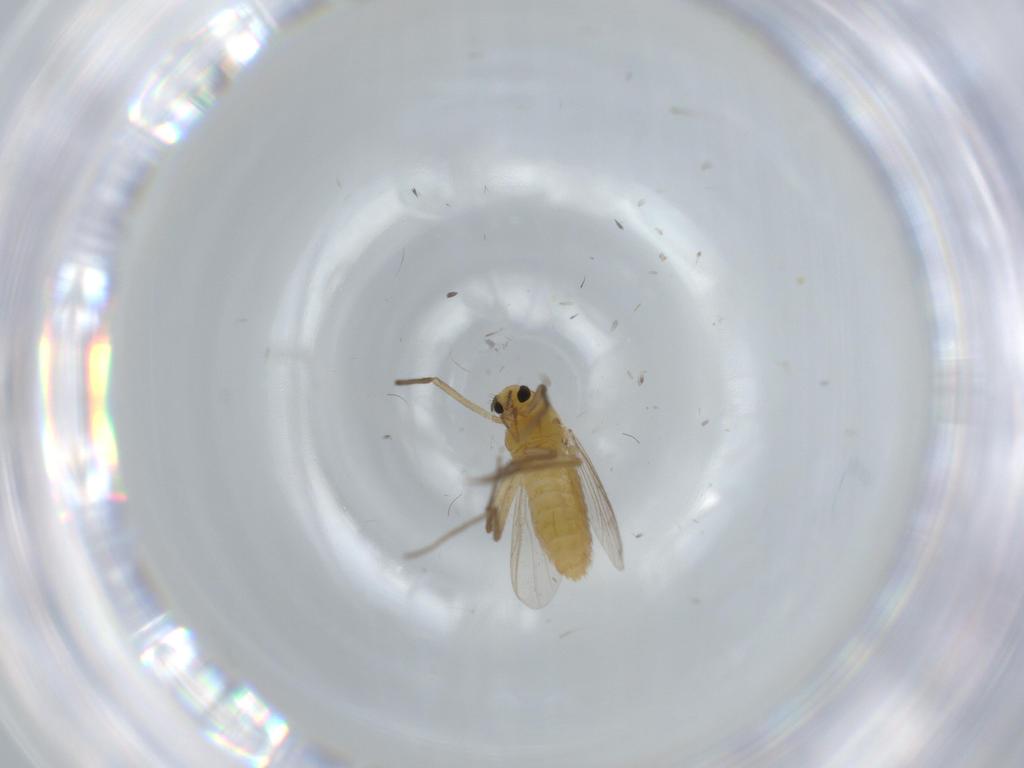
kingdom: Animalia
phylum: Arthropoda
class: Insecta
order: Diptera
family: Chironomidae
